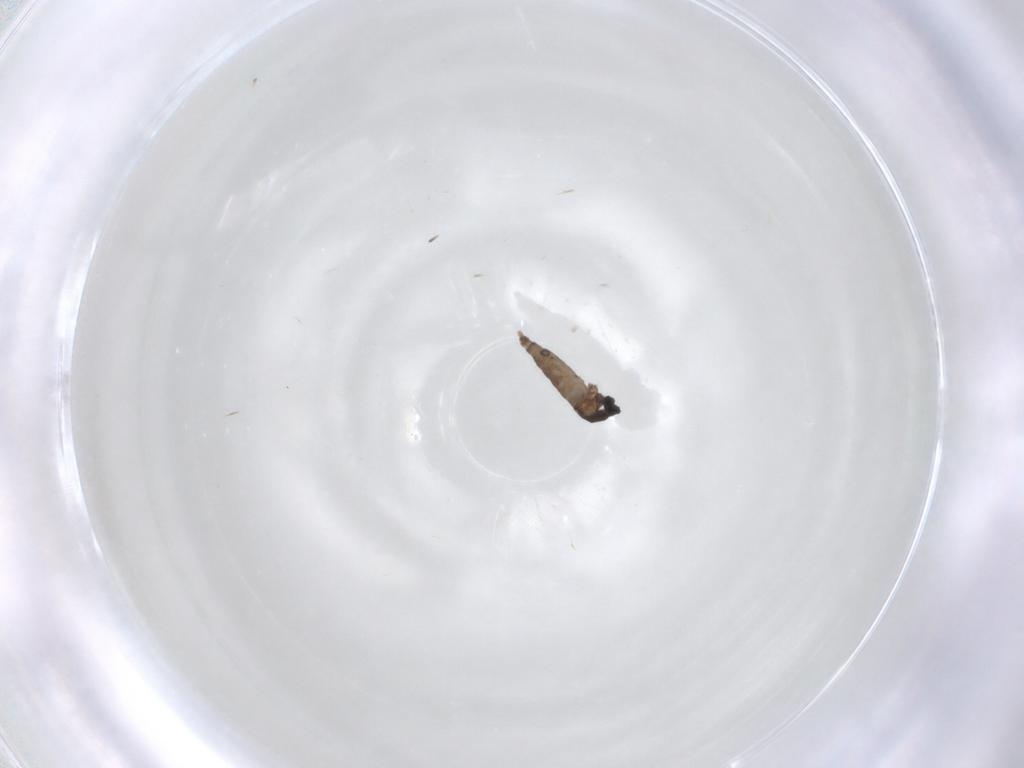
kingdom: Animalia
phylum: Arthropoda
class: Insecta
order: Diptera
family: Cecidomyiidae
